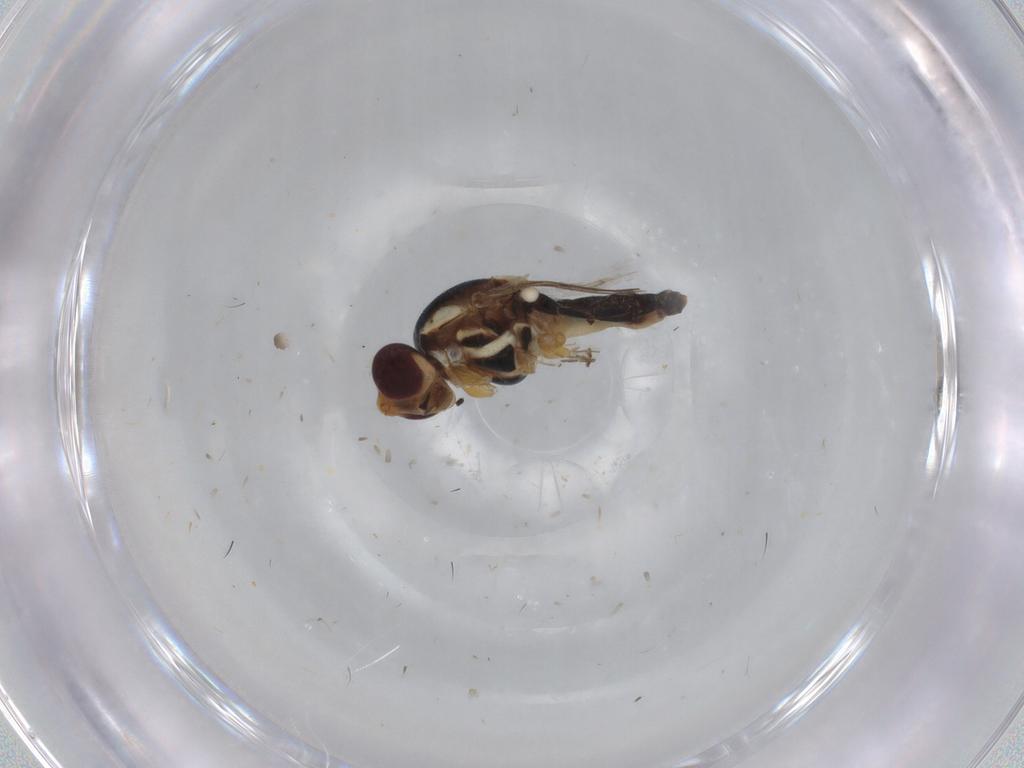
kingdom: Animalia
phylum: Arthropoda
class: Insecta
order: Diptera
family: Chloropidae
